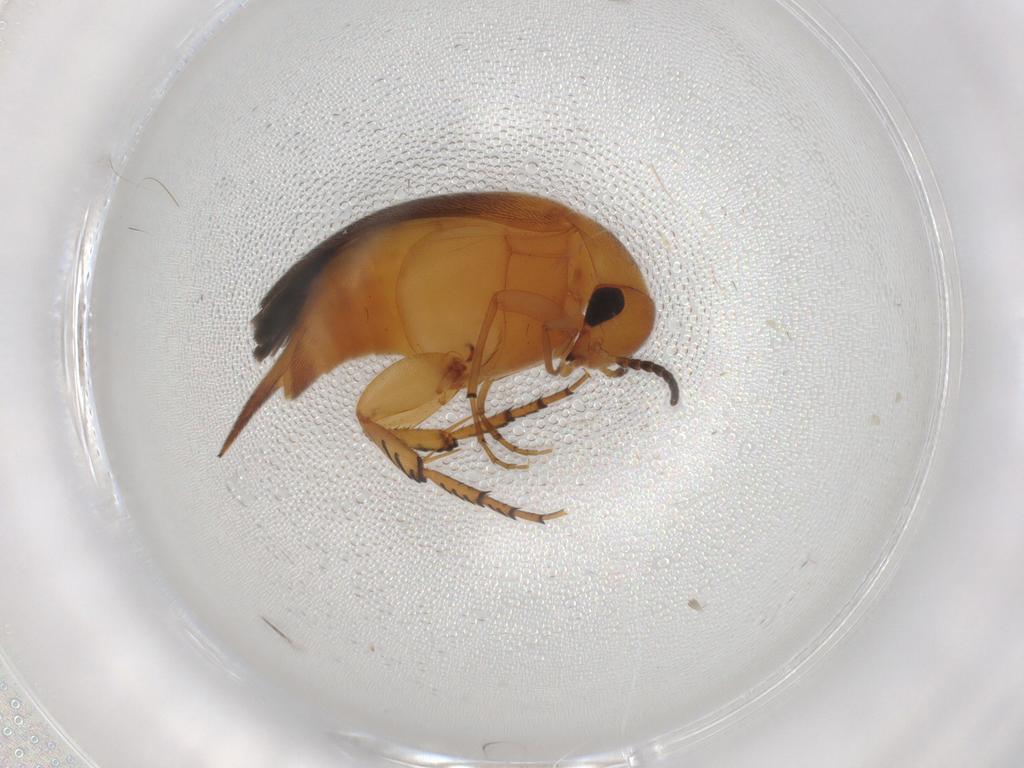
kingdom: Animalia
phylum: Arthropoda
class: Insecta
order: Coleoptera
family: Mordellidae
